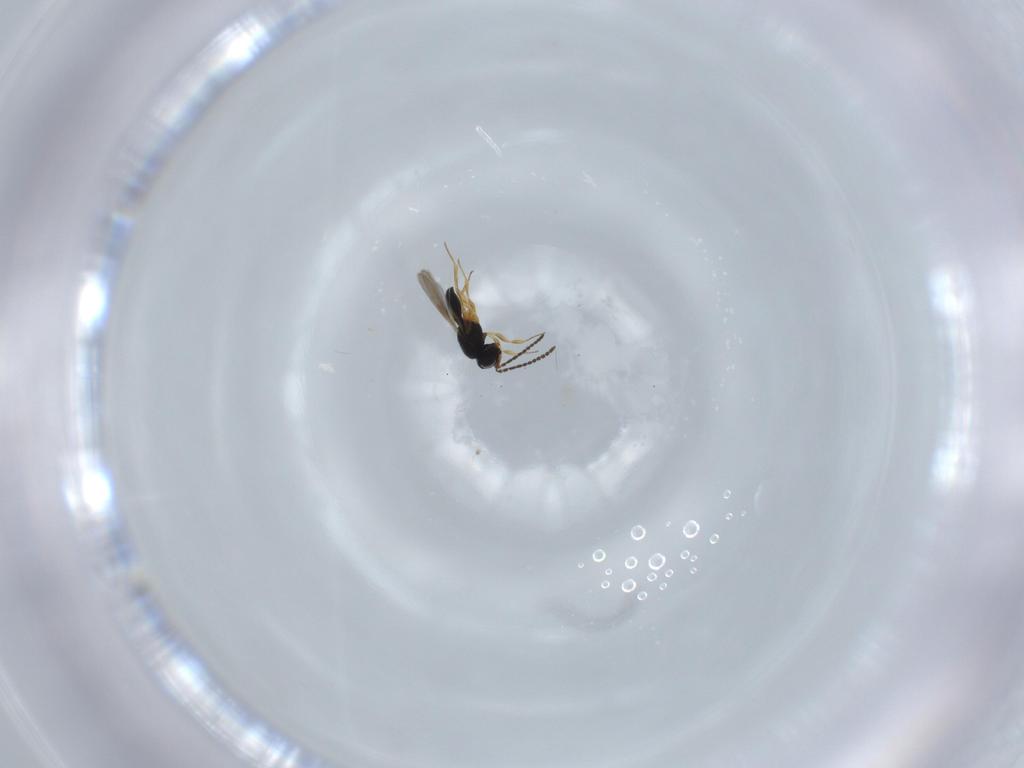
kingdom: Animalia
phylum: Arthropoda
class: Insecta
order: Hymenoptera
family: Scelionidae
